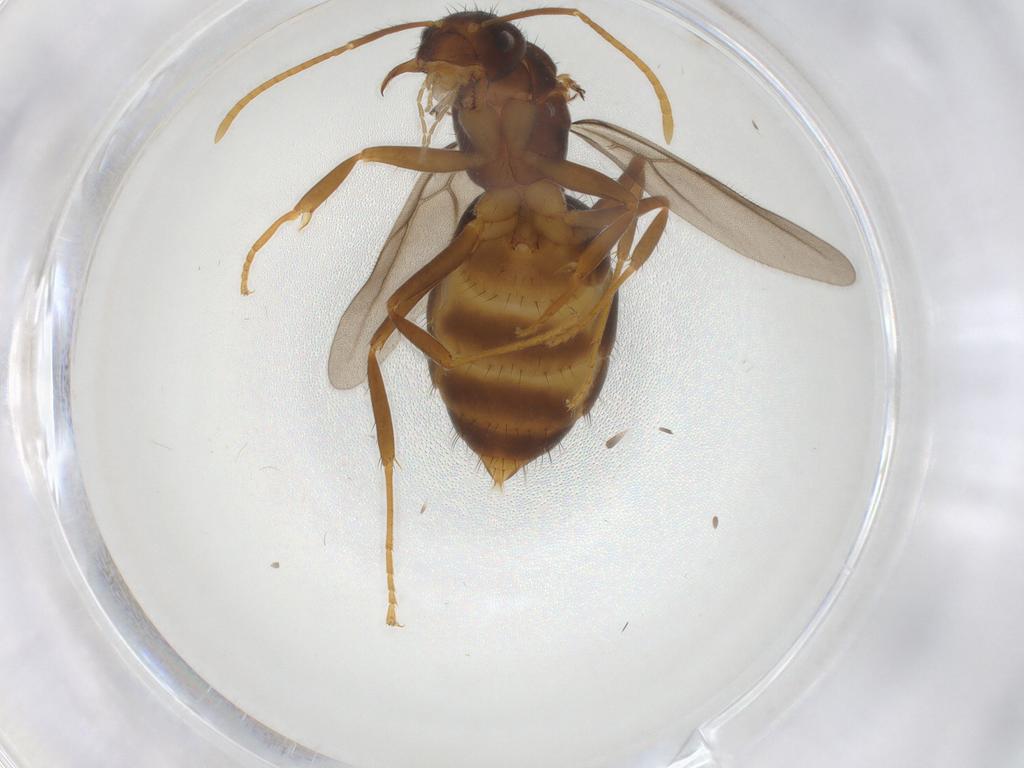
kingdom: Animalia
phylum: Arthropoda
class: Insecta
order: Hymenoptera
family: Formicidae
